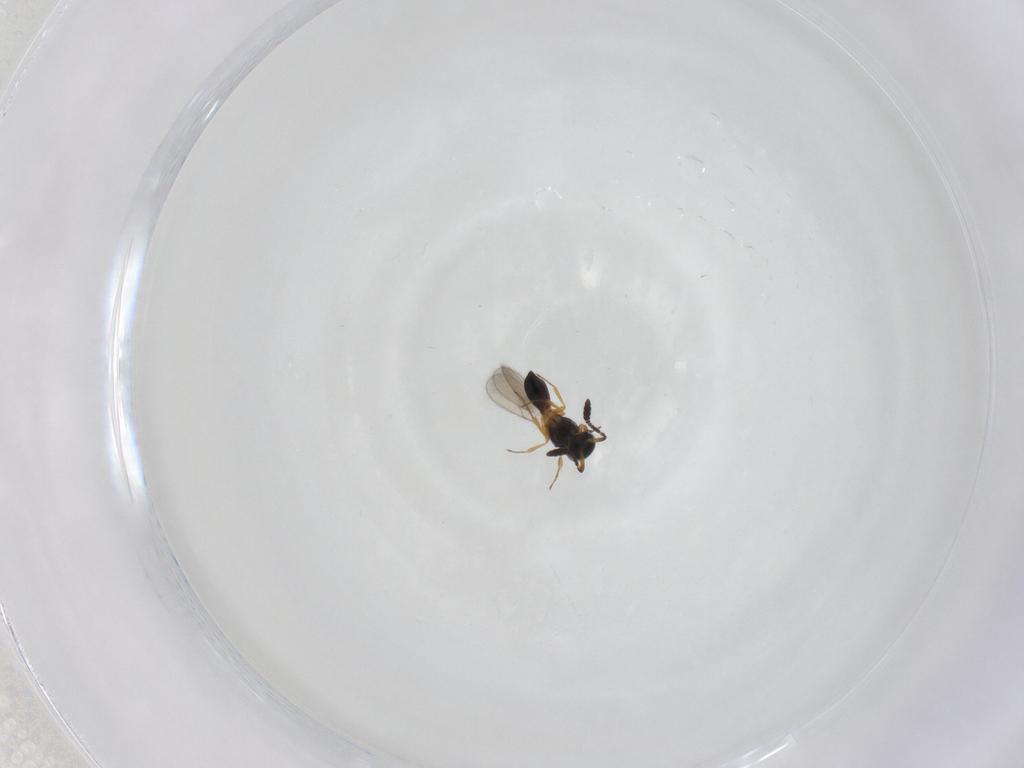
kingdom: Animalia
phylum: Arthropoda
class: Insecta
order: Hymenoptera
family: Scelionidae
